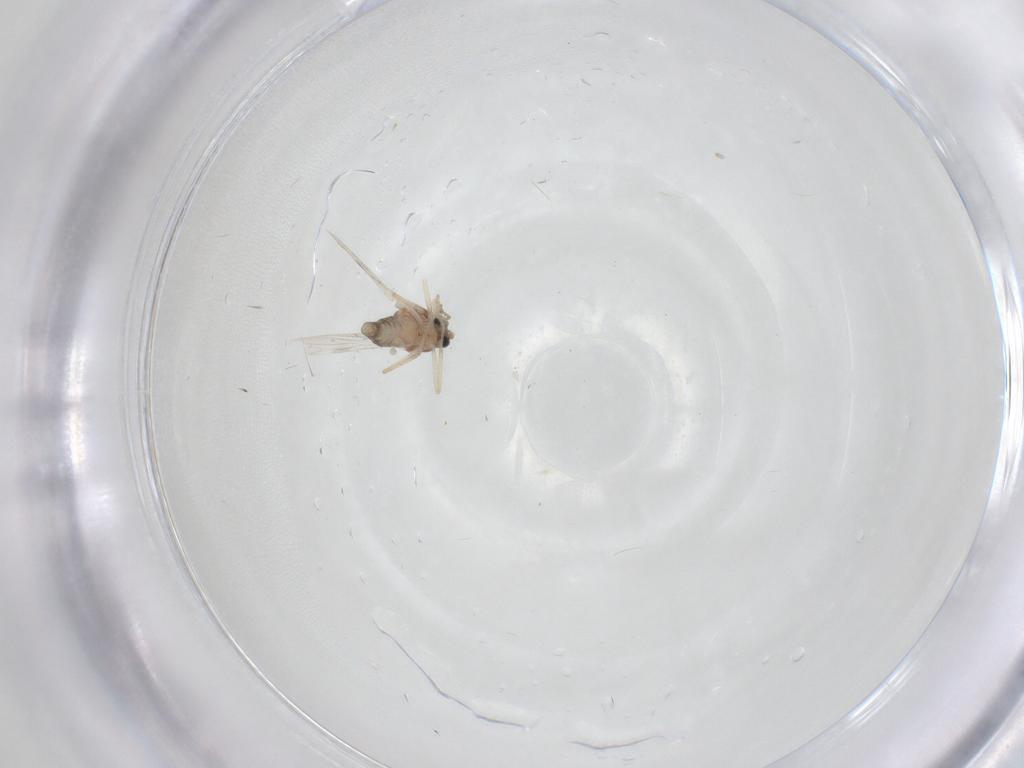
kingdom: Animalia
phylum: Arthropoda
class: Insecta
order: Diptera
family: Ceratopogonidae
